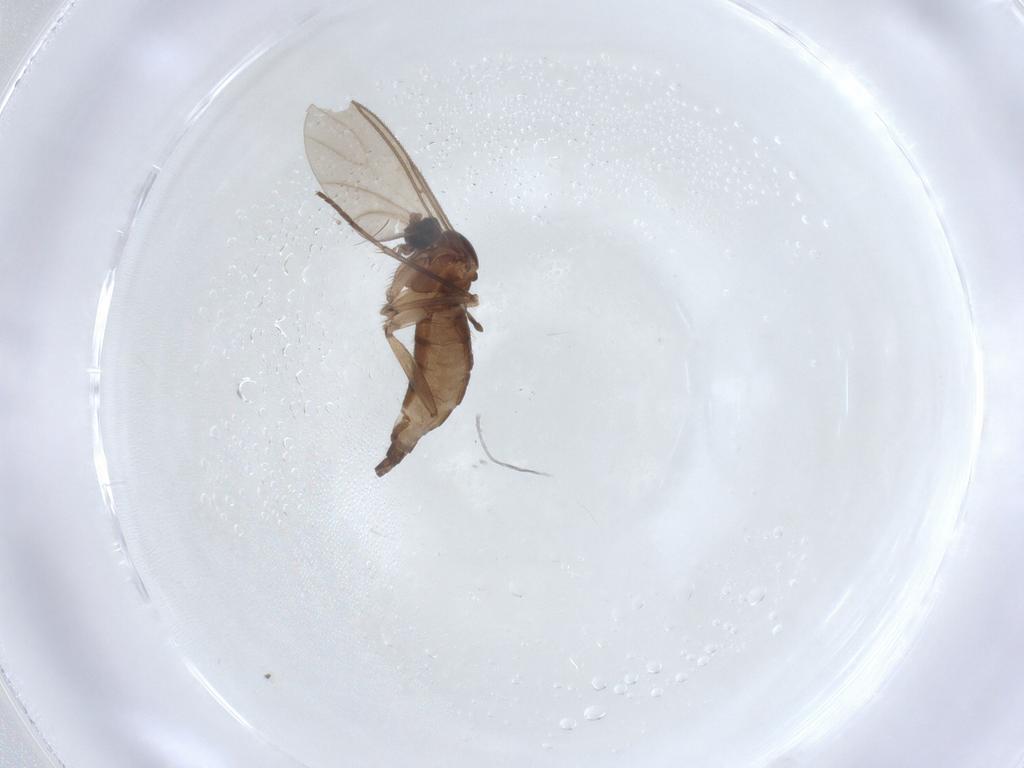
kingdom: Animalia
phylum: Arthropoda
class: Insecta
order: Diptera
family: Sciaridae
